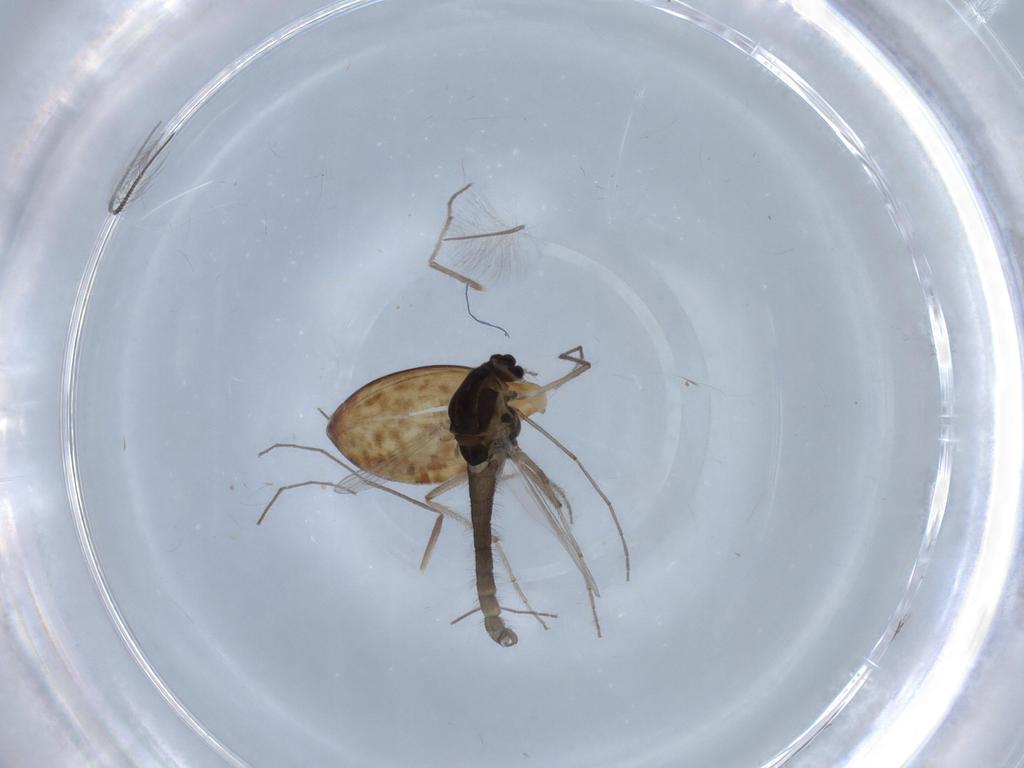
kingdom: Animalia
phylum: Arthropoda
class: Insecta
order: Diptera
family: Chironomidae
